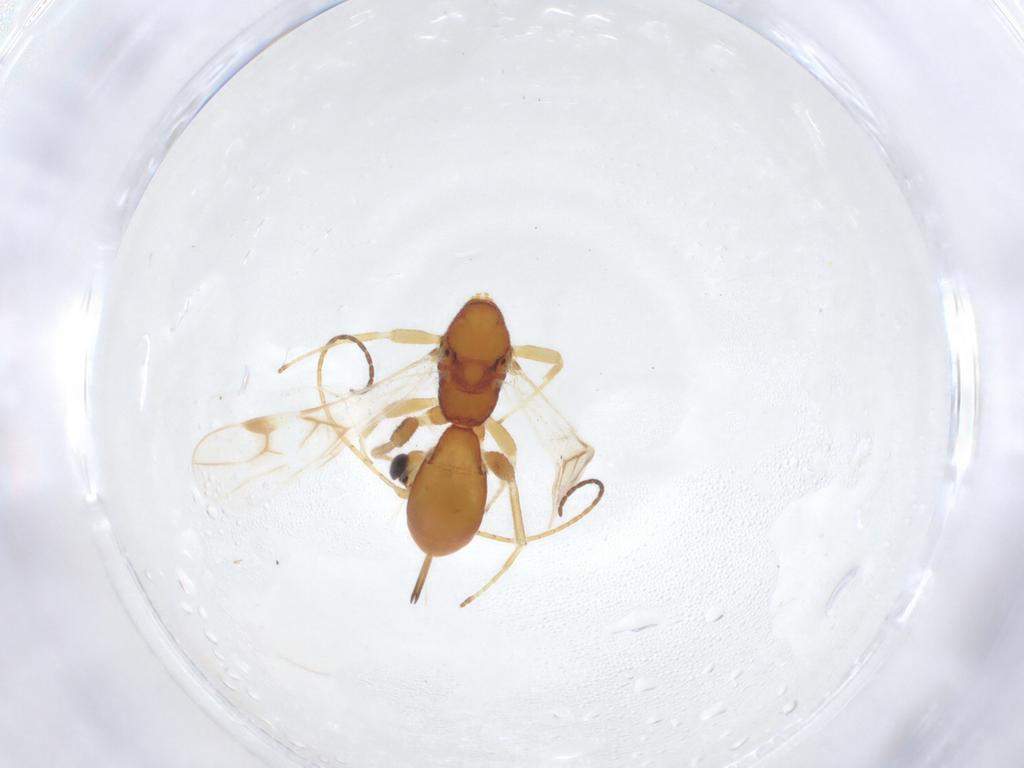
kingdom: Animalia
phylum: Arthropoda
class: Insecta
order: Hymenoptera
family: Braconidae
